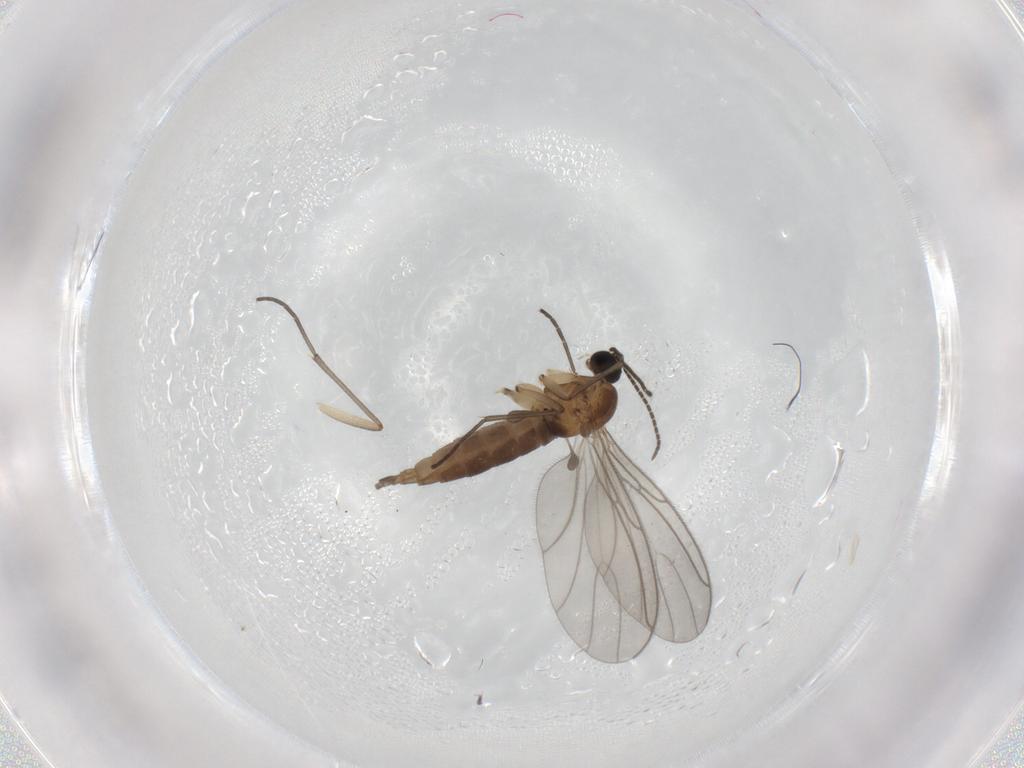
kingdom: Animalia
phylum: Arthropoda
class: Insecta
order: Diptera
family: Sciaridae
